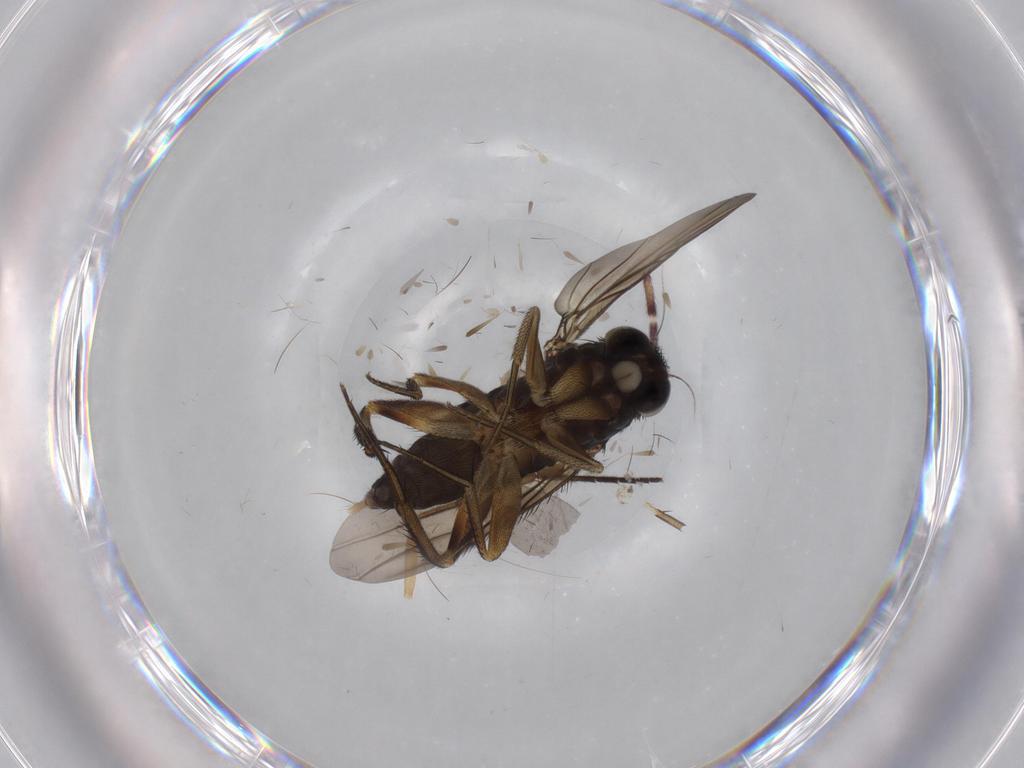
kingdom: Animalia
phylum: Arthropoda
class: Insecta
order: Diptera
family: Phoridae
